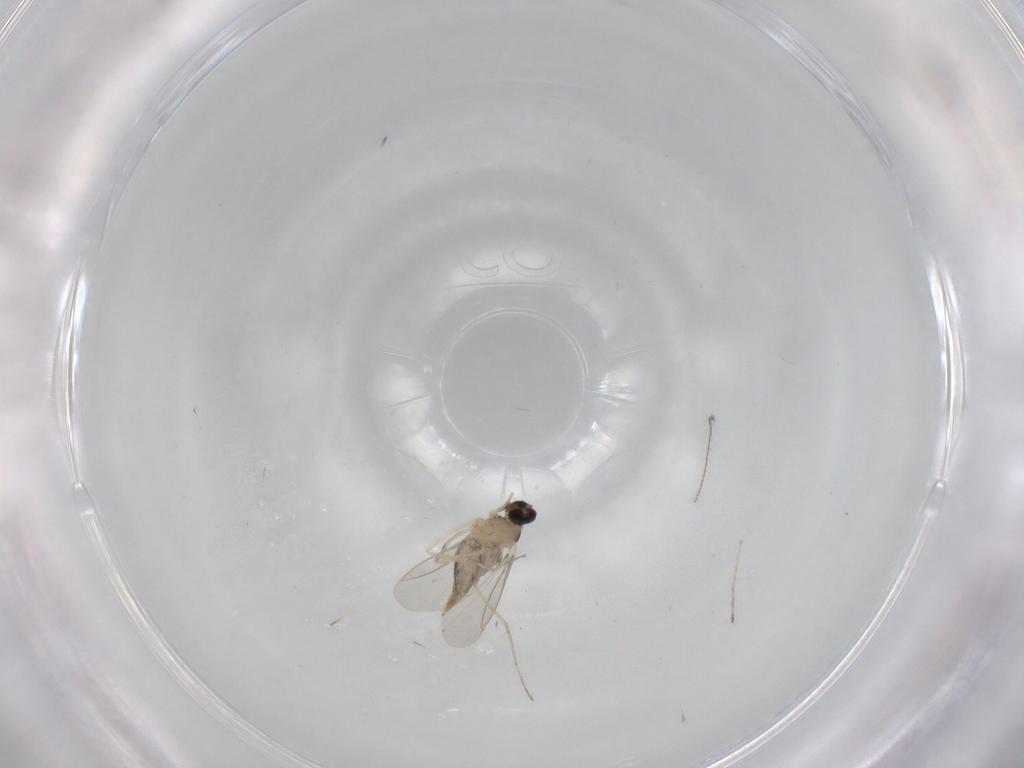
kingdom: Animalia
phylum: Arthropoda
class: Insecta
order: Diptera
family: Cecidomyiidae
